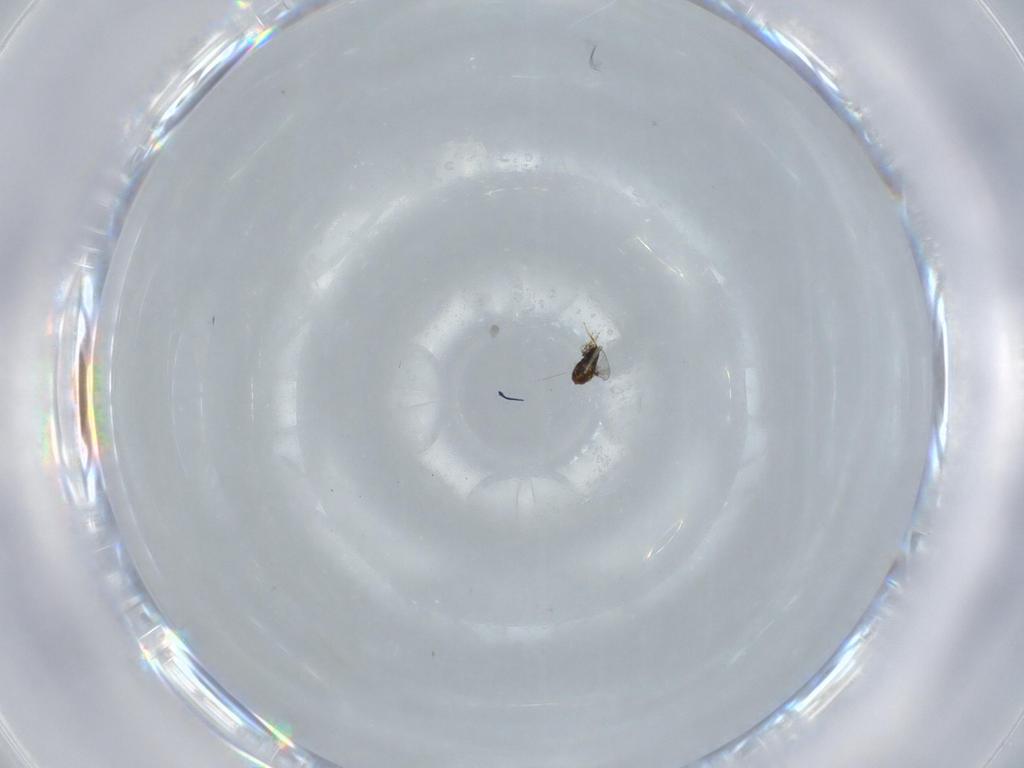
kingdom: Animalia
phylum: Arthropoda
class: Insecta
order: Hymenoptera
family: Trichogrammatidae
